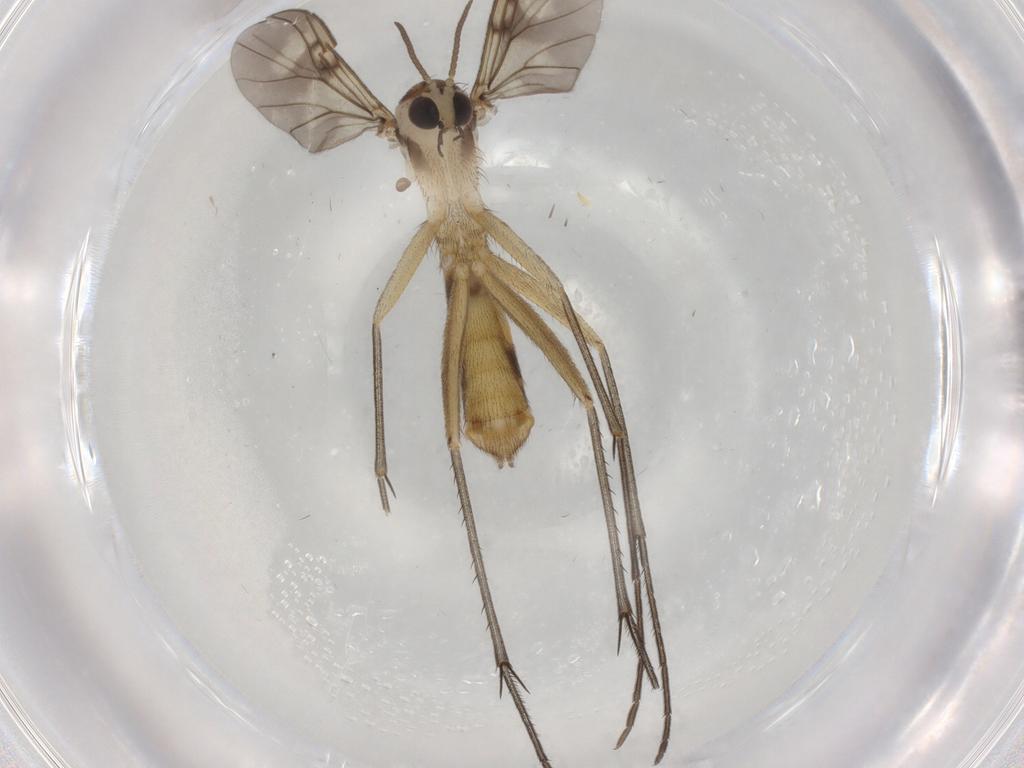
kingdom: Animalia
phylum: Arthropoda
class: Insecta
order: Diptera
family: Psychodidae
